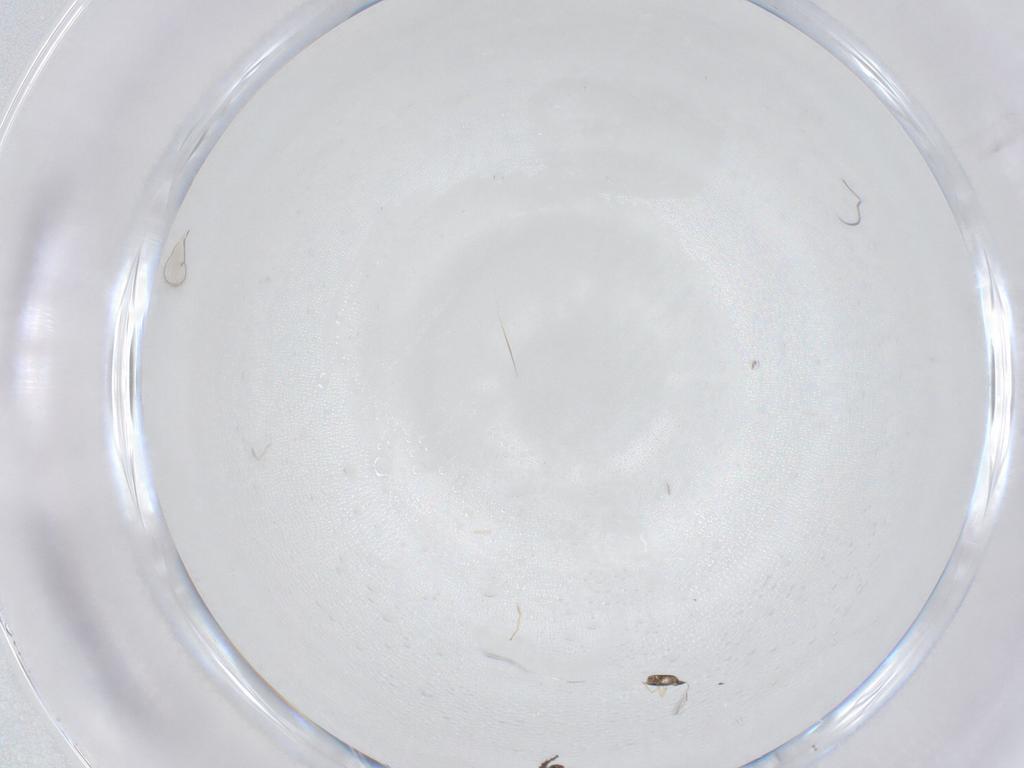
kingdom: Animalia
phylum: Arthropoda
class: Insecta
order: Diptera
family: Cecidomyiidae
